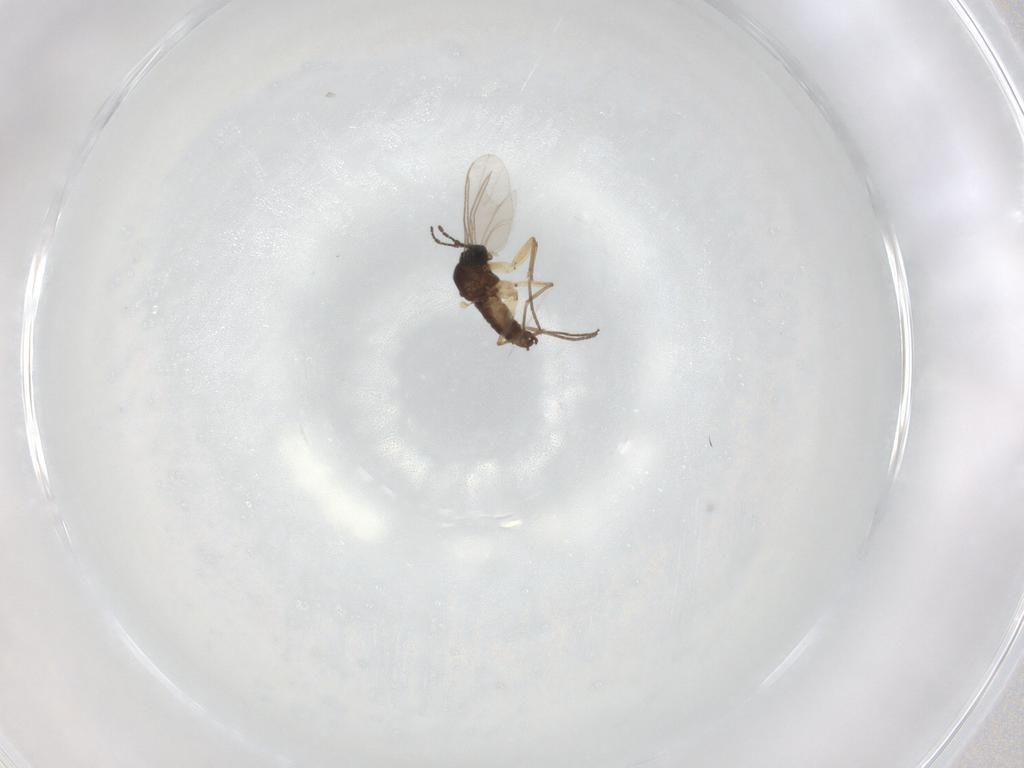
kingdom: Animalia
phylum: Arthropoda
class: Insecta
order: Diptera
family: Sciaridae
